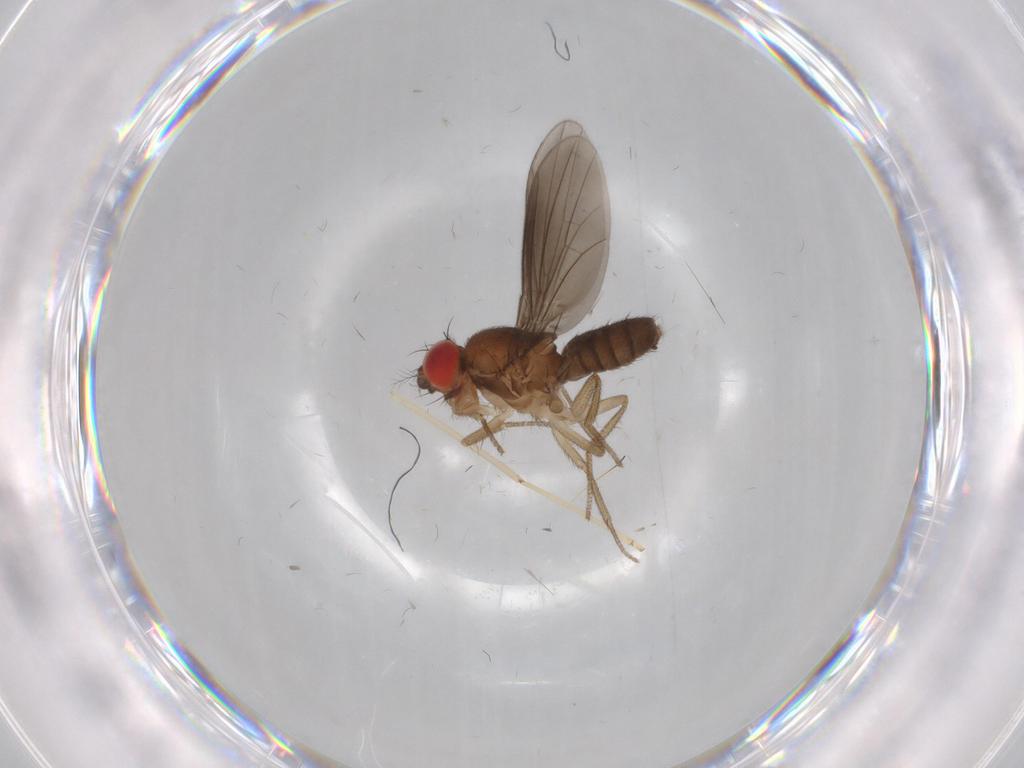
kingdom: Animalia
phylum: Arthropoda
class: Insecta
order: Diptera
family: Drosophilidae
